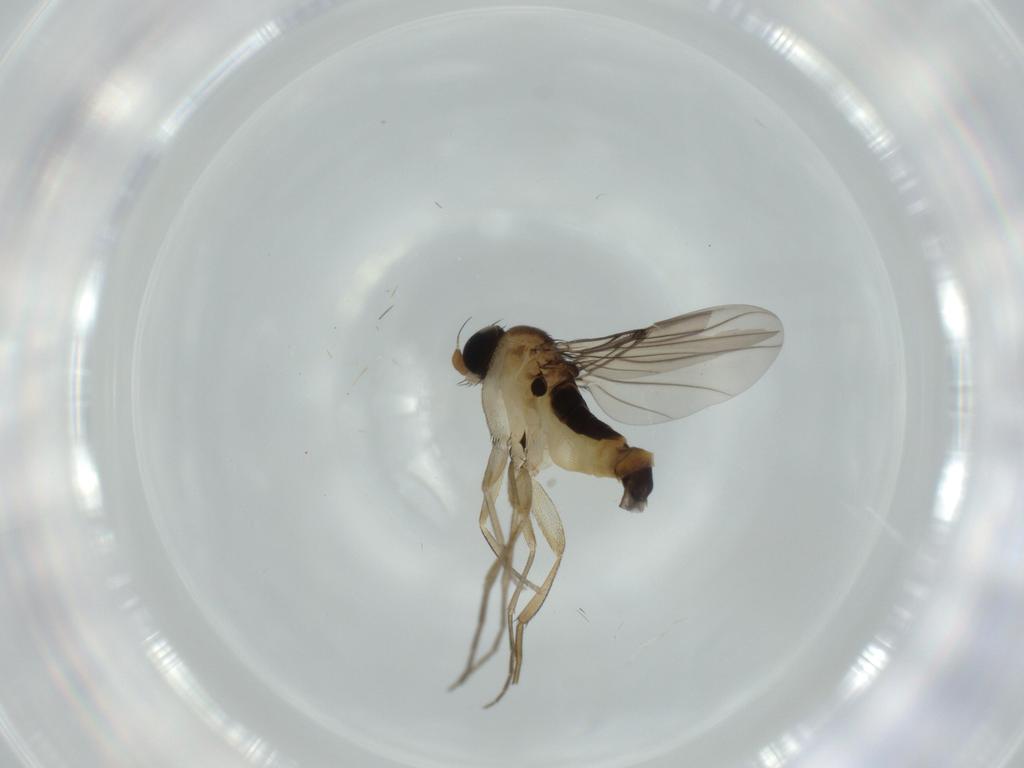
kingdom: Animalia
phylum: Arthropoda
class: Insecta
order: Diptera
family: Phoridae
